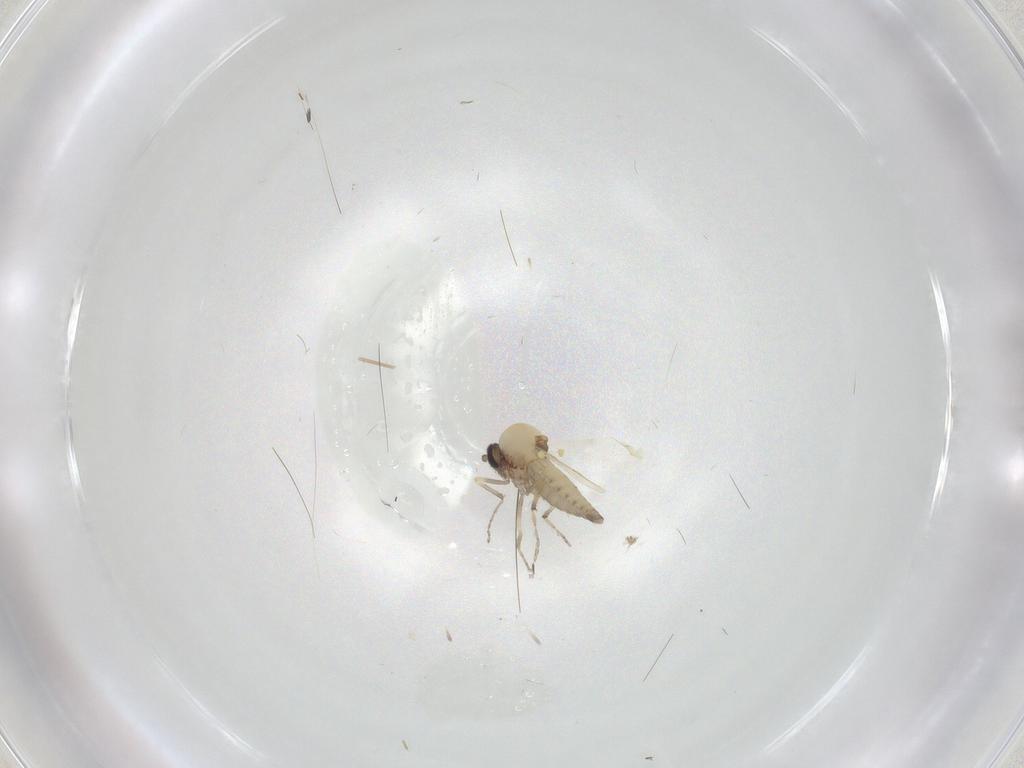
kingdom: Animalia
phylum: Arthropoda
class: Insecta
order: Diptera
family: Ceratopogonidae
